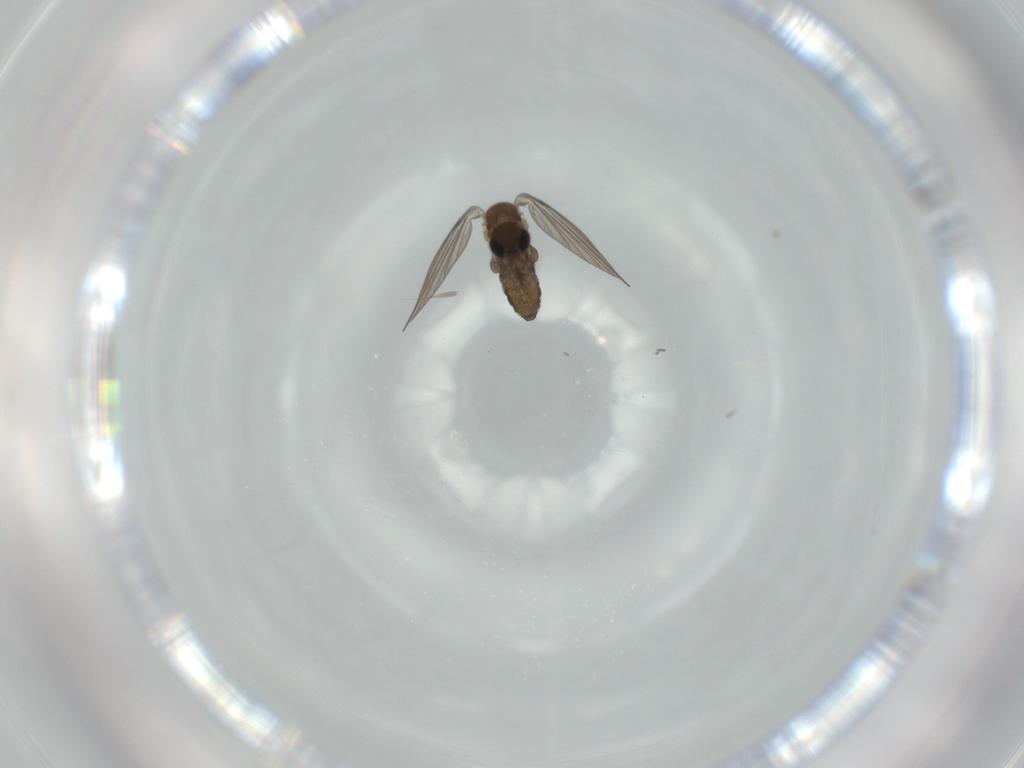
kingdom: Animalia
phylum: Arthropoda
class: Insecta
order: Diptera
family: Psychodidae
